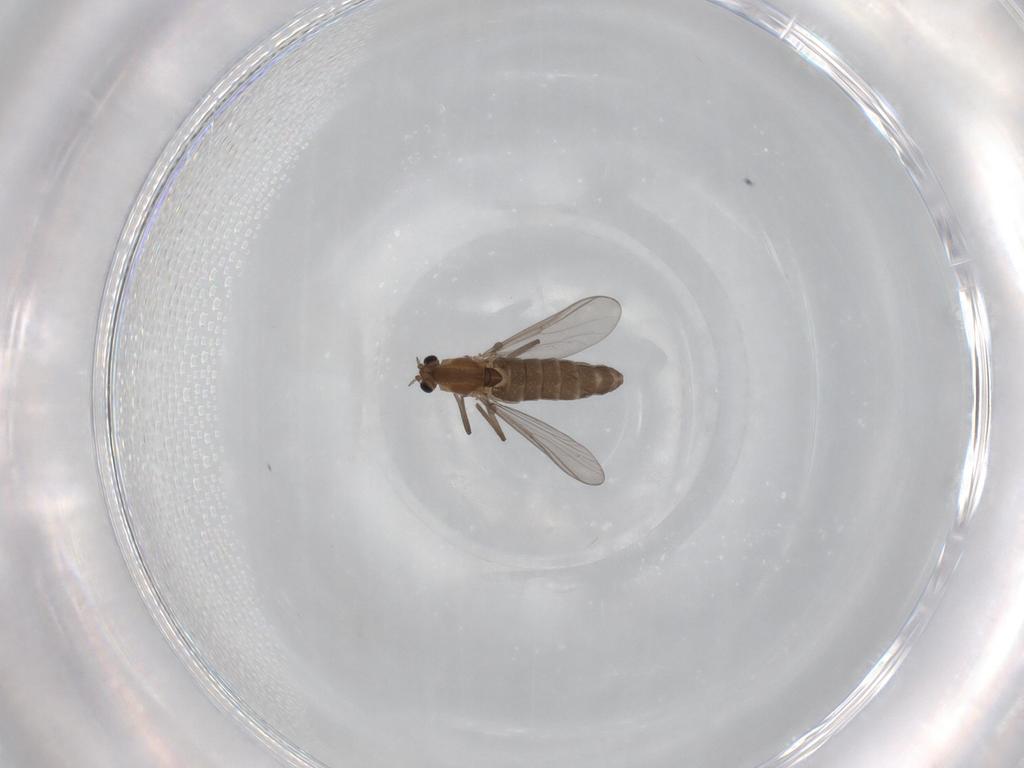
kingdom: Animalia
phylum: Arthropoda
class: Insecta
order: Diptera
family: Chironomidae
